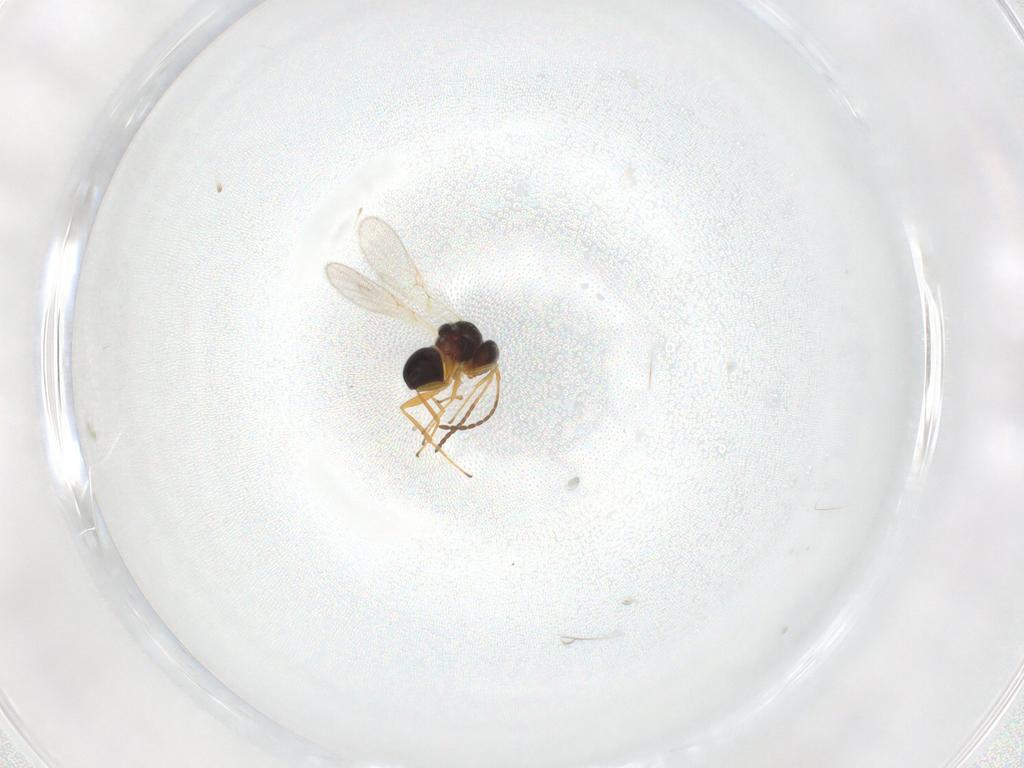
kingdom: Animalia
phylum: Arthropoda
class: Insecta
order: Hymenoptera
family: Figitidae
